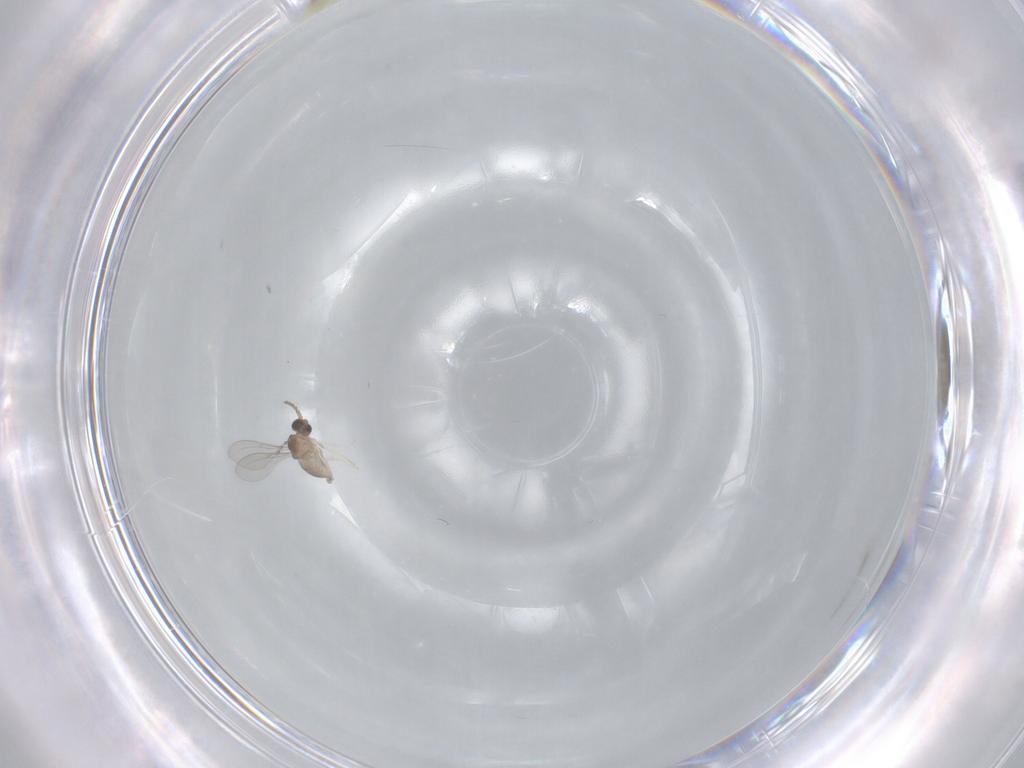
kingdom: Animalia
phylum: Arthropoda
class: Insecta
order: Diptera
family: Cecidomyiidae
